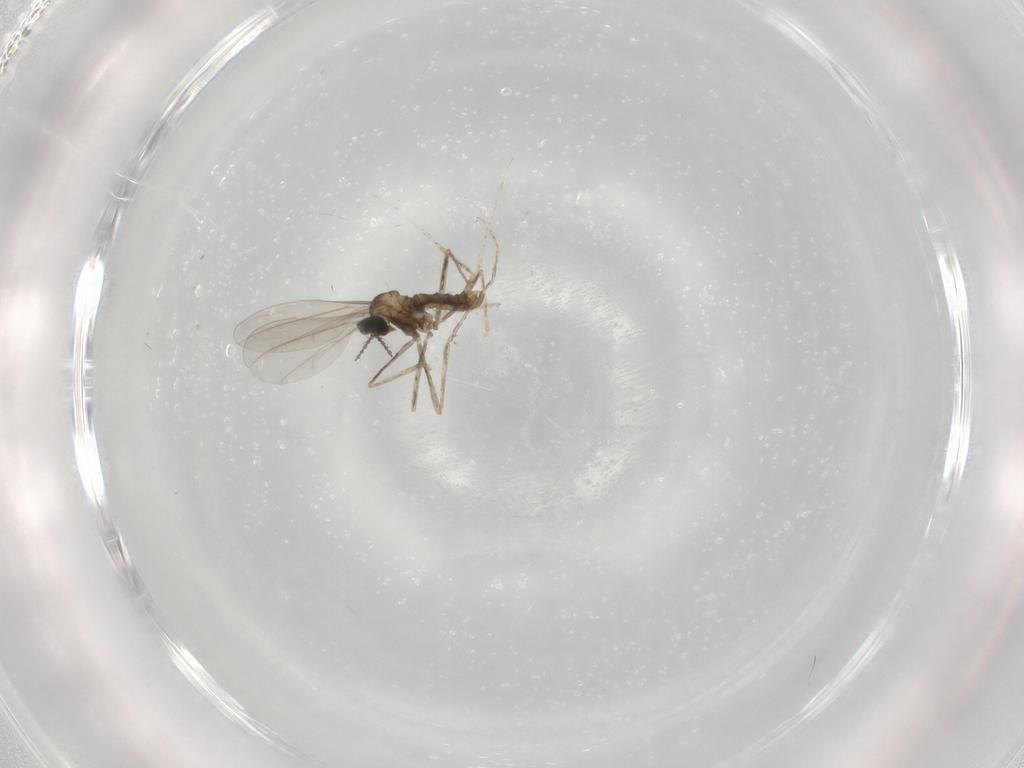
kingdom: Animalia
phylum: Arthropoda
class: Insecta
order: Diptera
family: Cecidomyiidae
